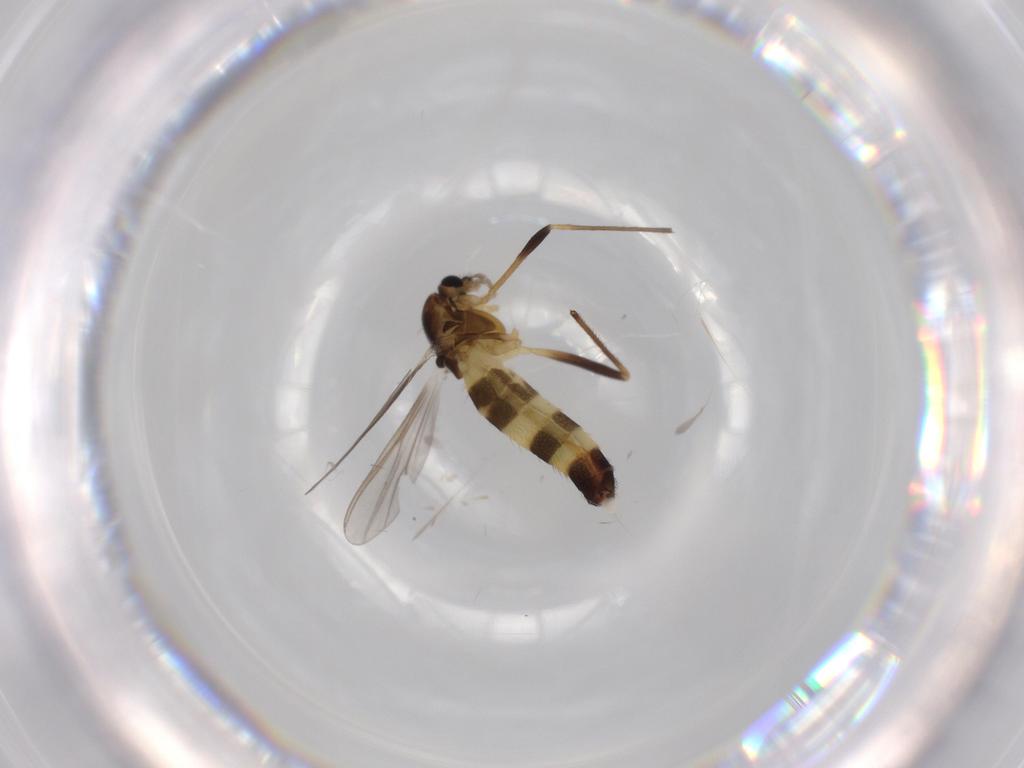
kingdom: Animalia
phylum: Arthropoda
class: Insecta
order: Diptera
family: Chironomidae
